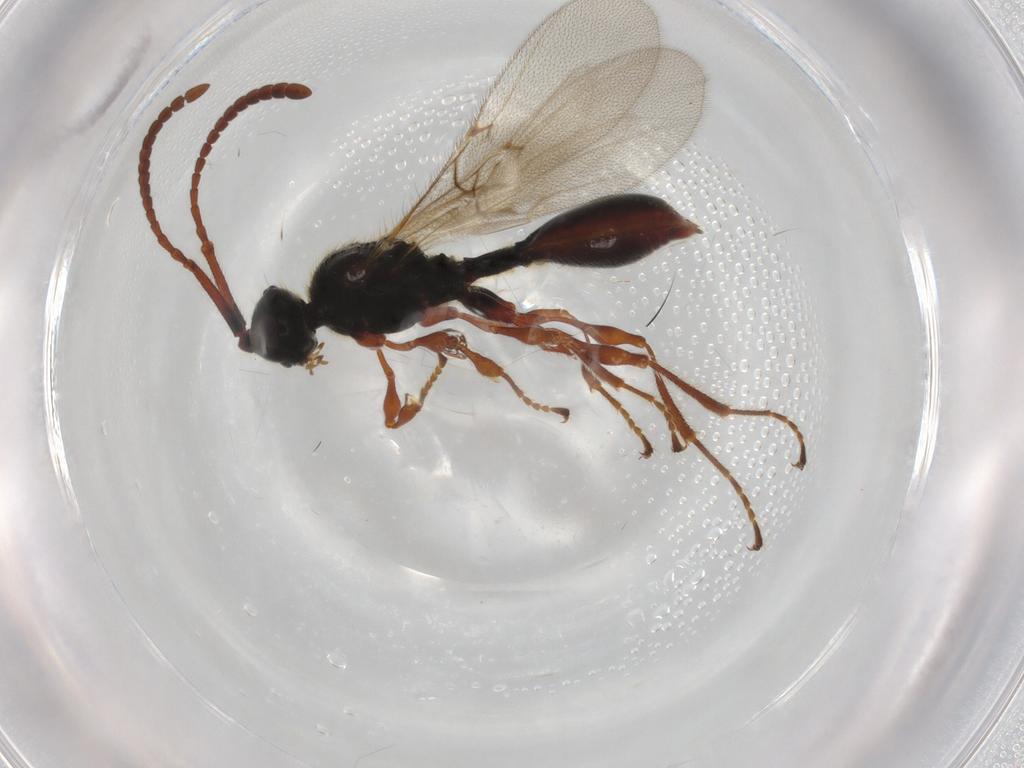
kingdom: Animalia
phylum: Arthropoda
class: Insecta
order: Hymenoptera
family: Diapriidae
